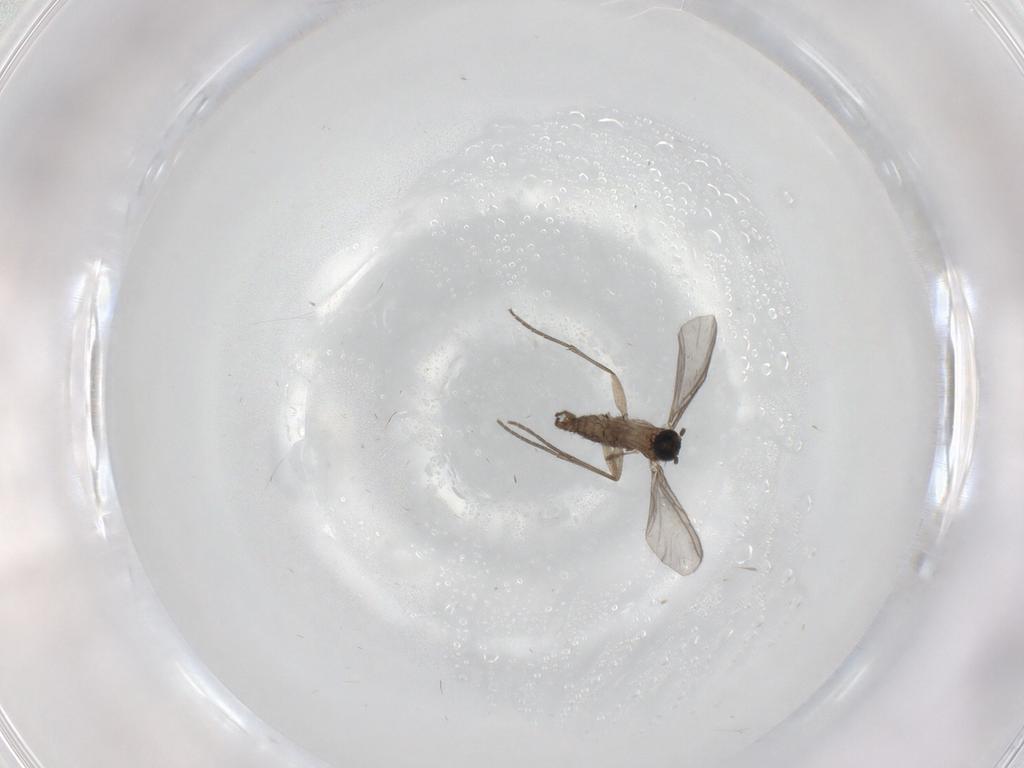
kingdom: Animalia
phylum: Arthropoda
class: Insecta
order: Diptera
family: Sciaridae
